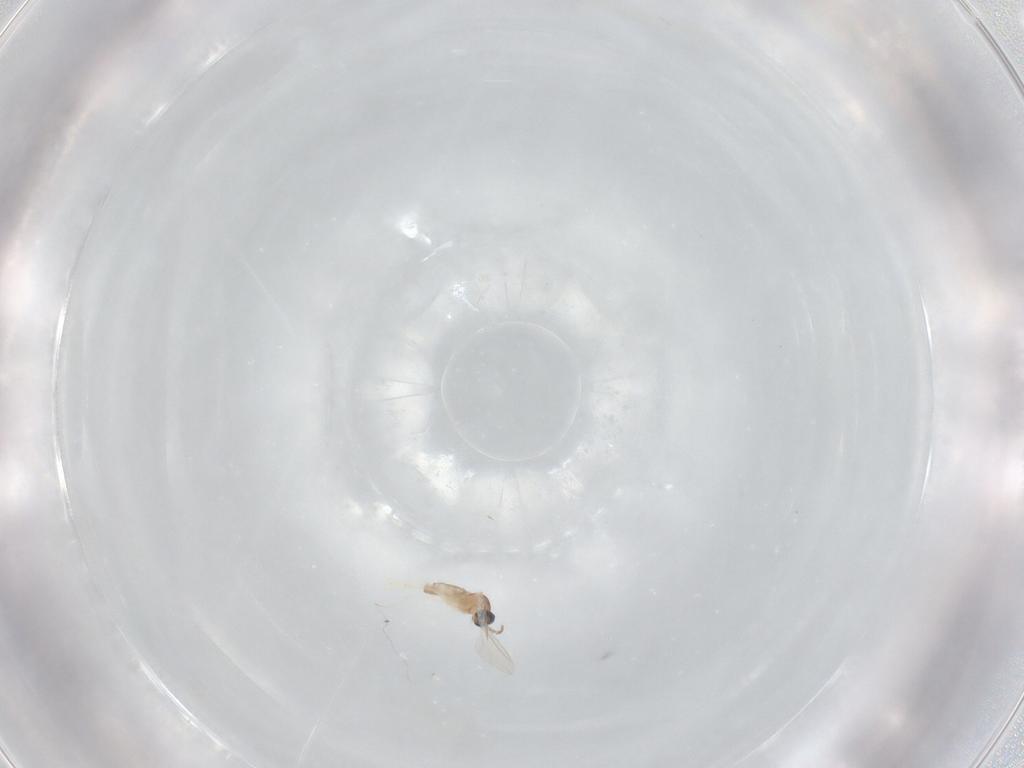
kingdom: Animalia
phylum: Arthropoda
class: Insecta
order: Diptera
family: Cecidomyiidae
